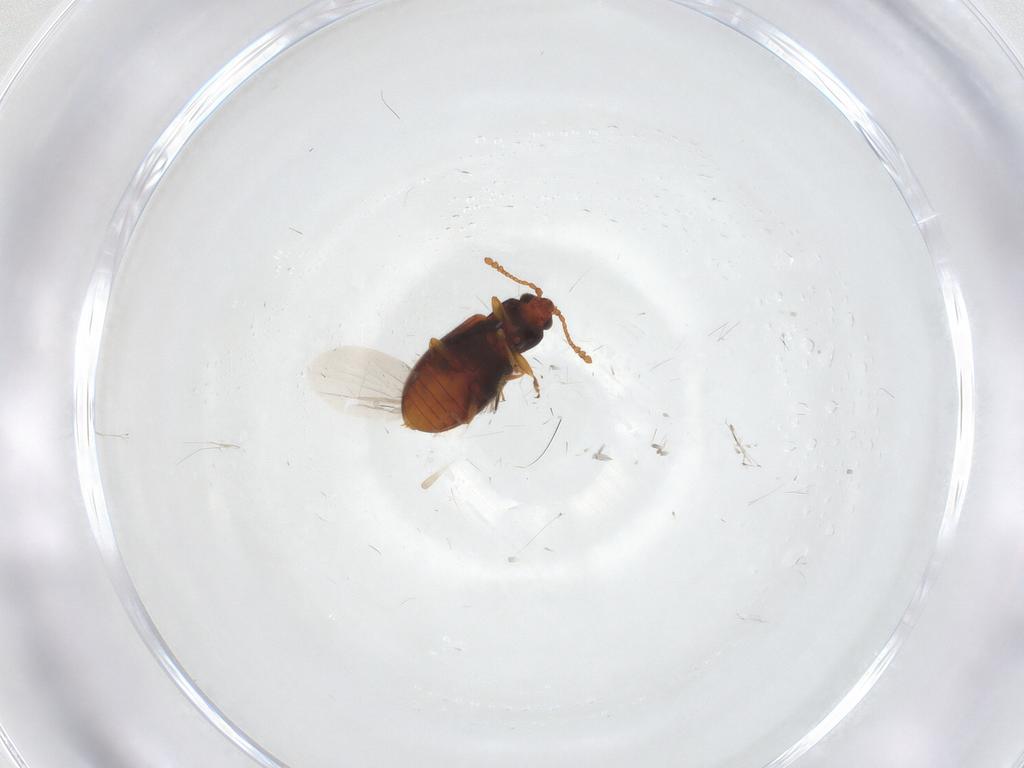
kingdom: Animalia
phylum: Arthropoda
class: Insecta
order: Coleoptera
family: Cryptophagidae
